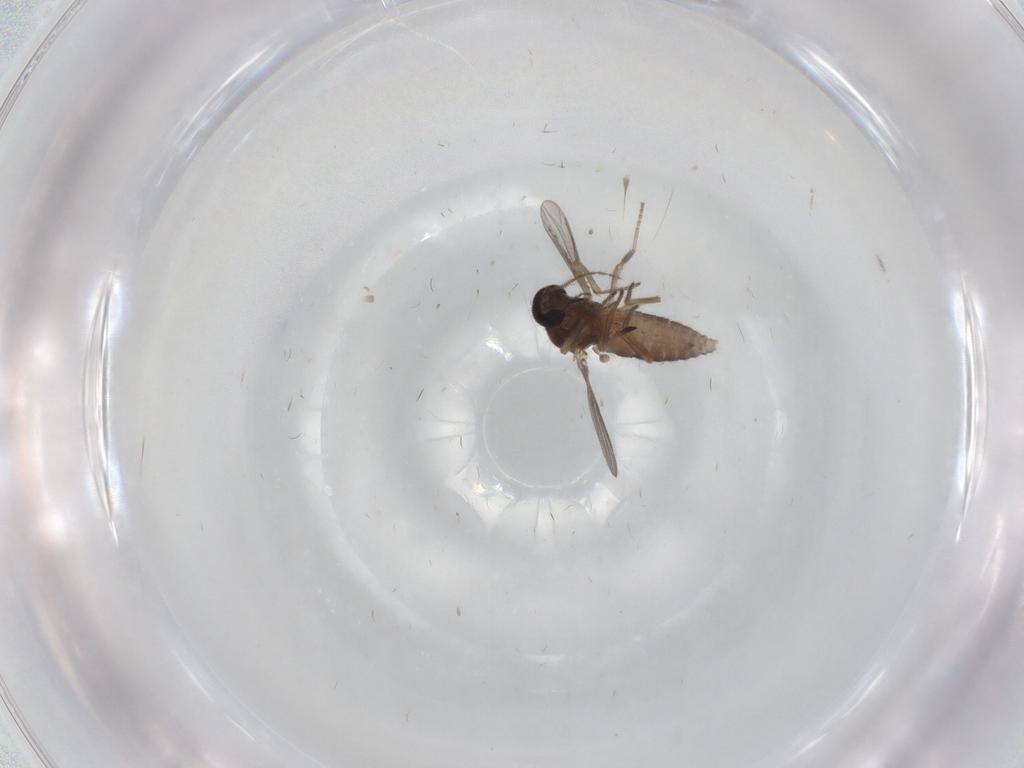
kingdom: Animalia
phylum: Arthropoda
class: Insecta
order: Diptera
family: Ceratopogonidae
